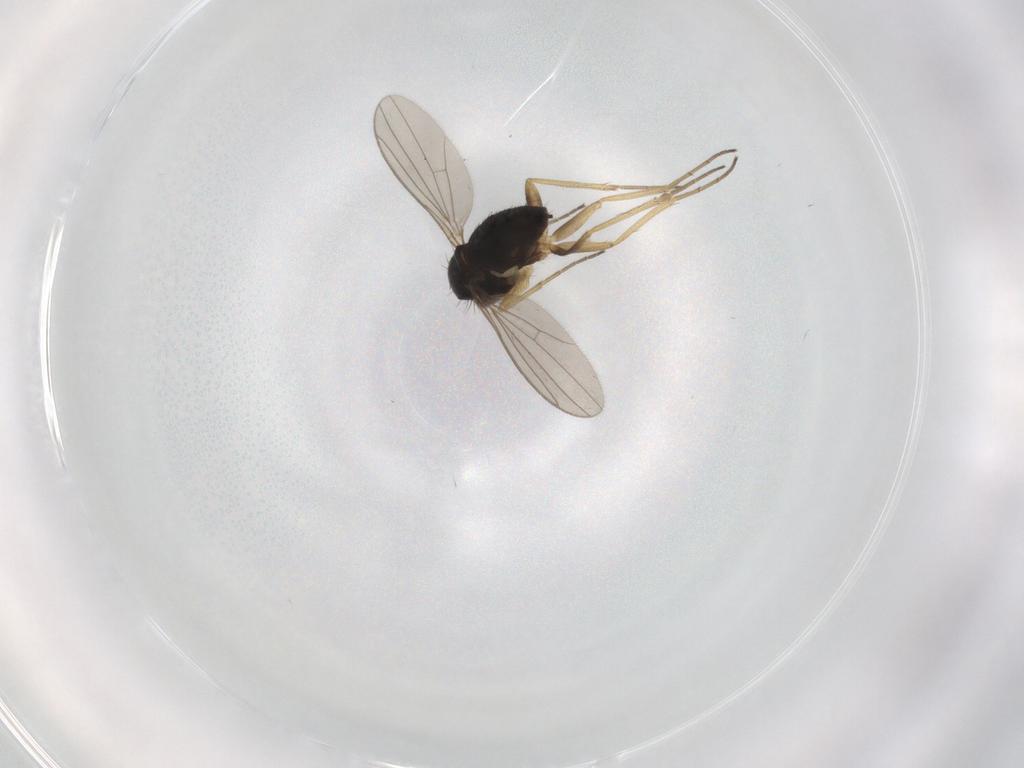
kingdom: Animalia
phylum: Arthropoda
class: Insecta
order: Diptera
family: Dolichopodidae
